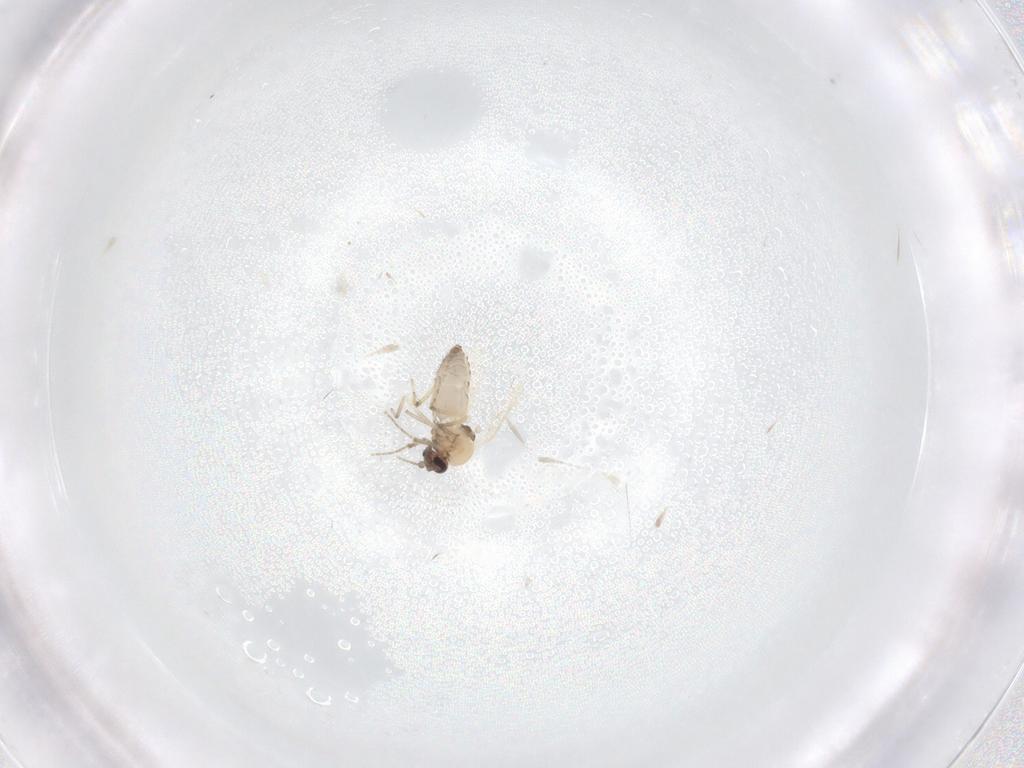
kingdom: Animalia
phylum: Arthropoda
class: Insecta
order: Diptera
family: Ceratopogonidae
